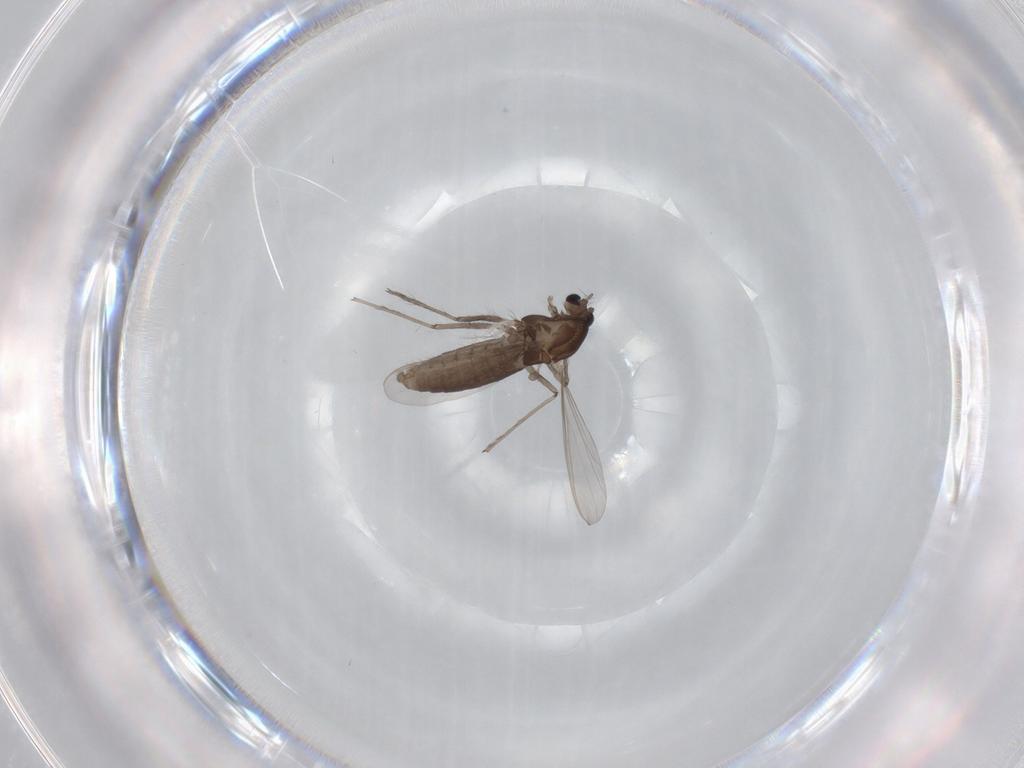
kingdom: Animalia
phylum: Arthropoda
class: Insecta
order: Diptera
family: Chironomidae
